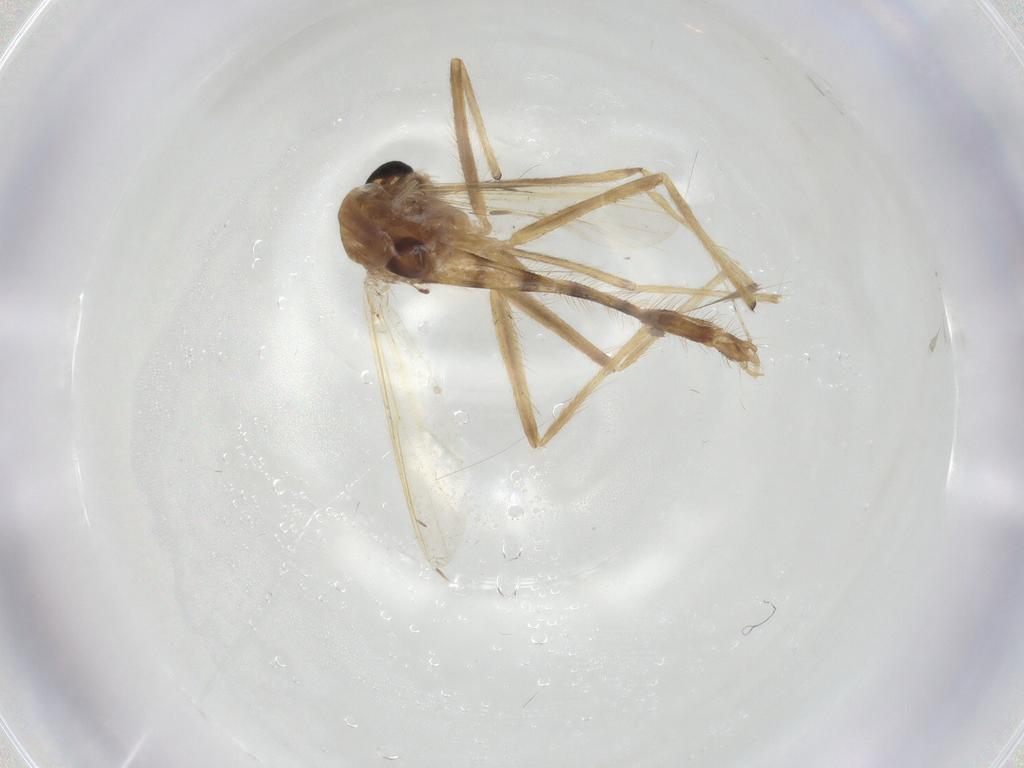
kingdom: Animalia
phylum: Arthropoda
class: Insecta
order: Diptera
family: Chironomidae
